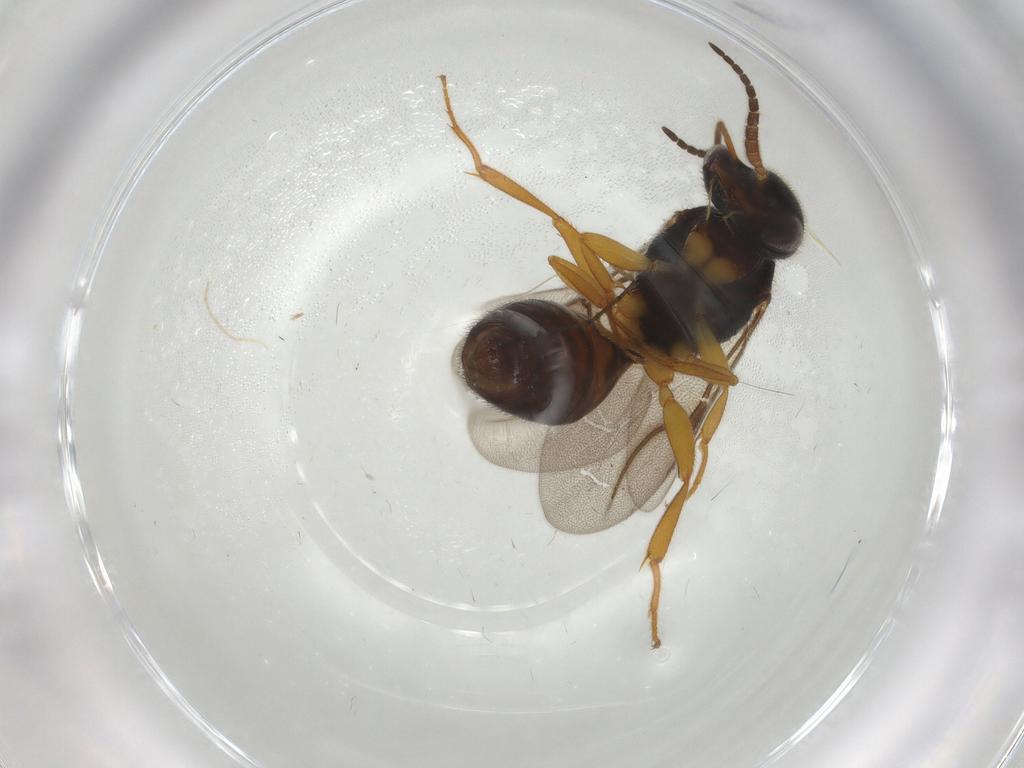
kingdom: Animalia
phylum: Arthropoda
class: Insecta
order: Hymenoptera
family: Bethylidae
